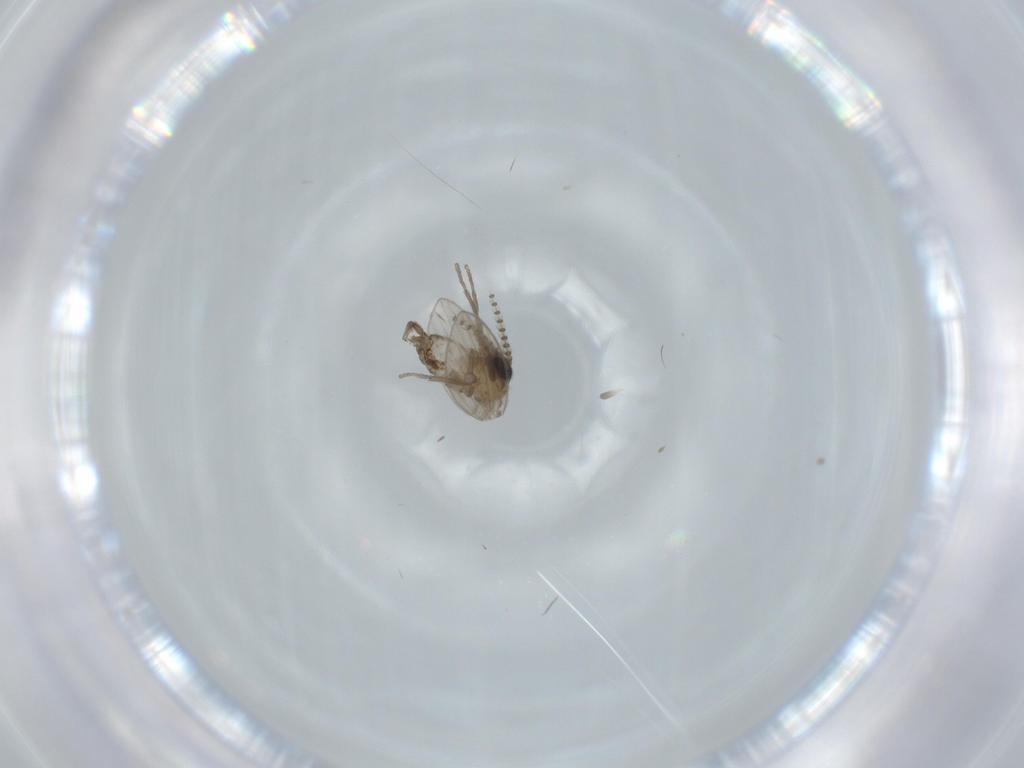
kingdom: Animalia
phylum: Arthropoda
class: Insecta
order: Diptera
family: Psychodidae
